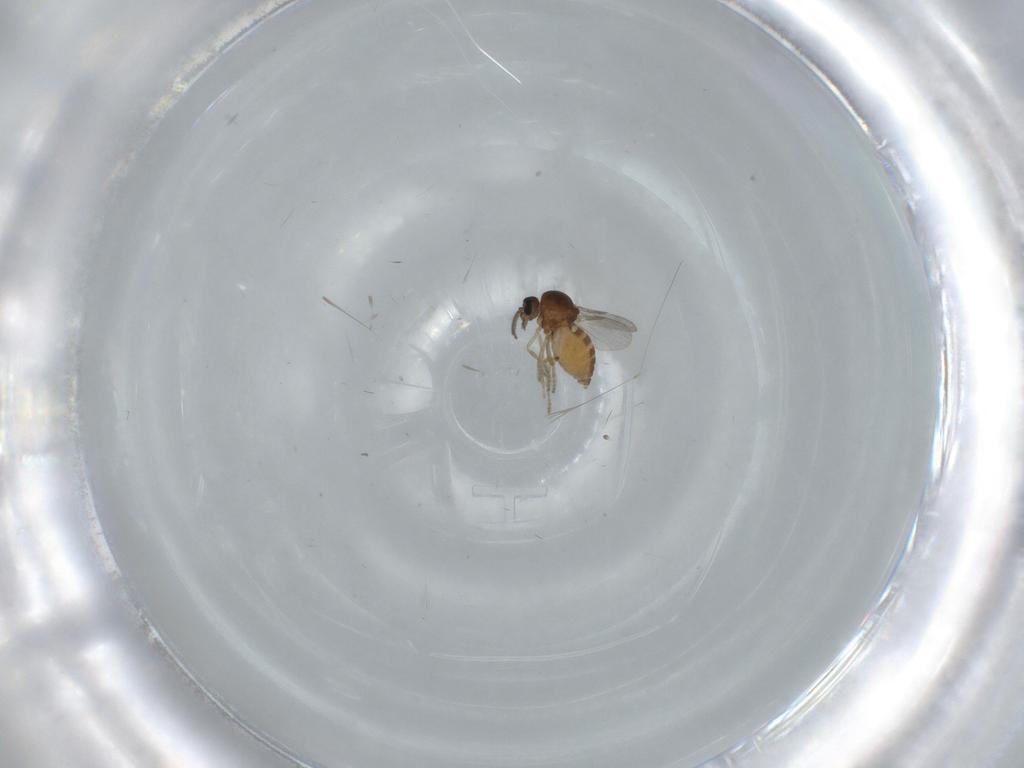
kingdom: Animalia
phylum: Arthropoda
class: Insecta
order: Diptera
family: Ceratopogonidae
